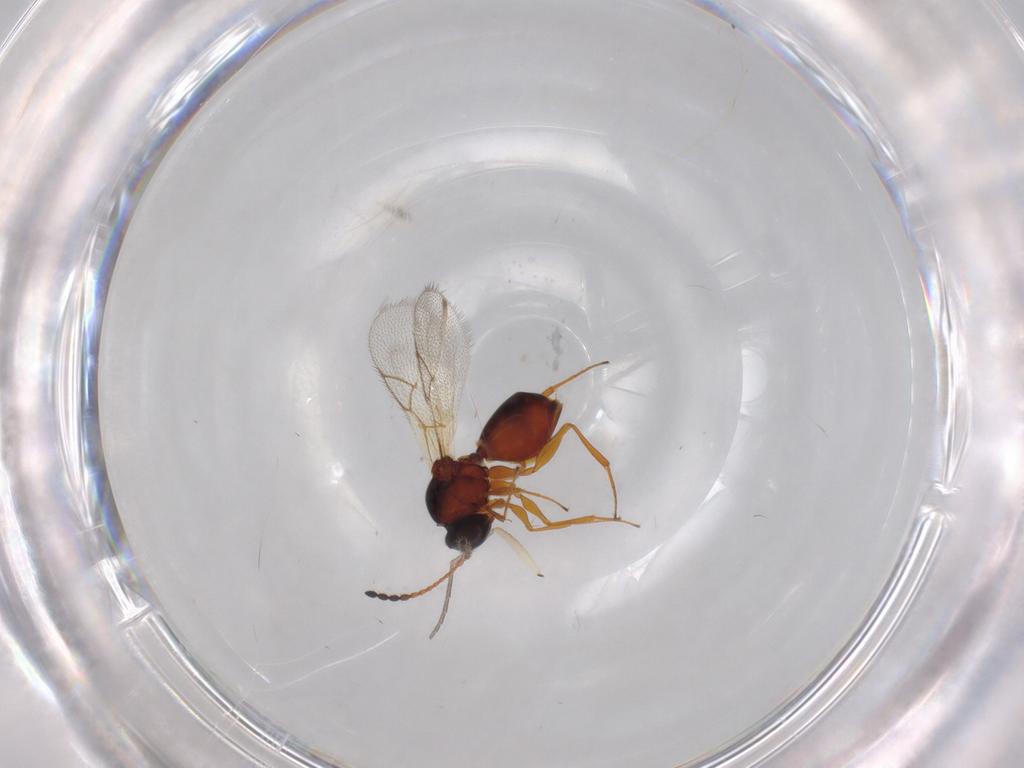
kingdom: Animalia
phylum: Arthropoda
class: Insecta
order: Hymenoptera
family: Figitidae
